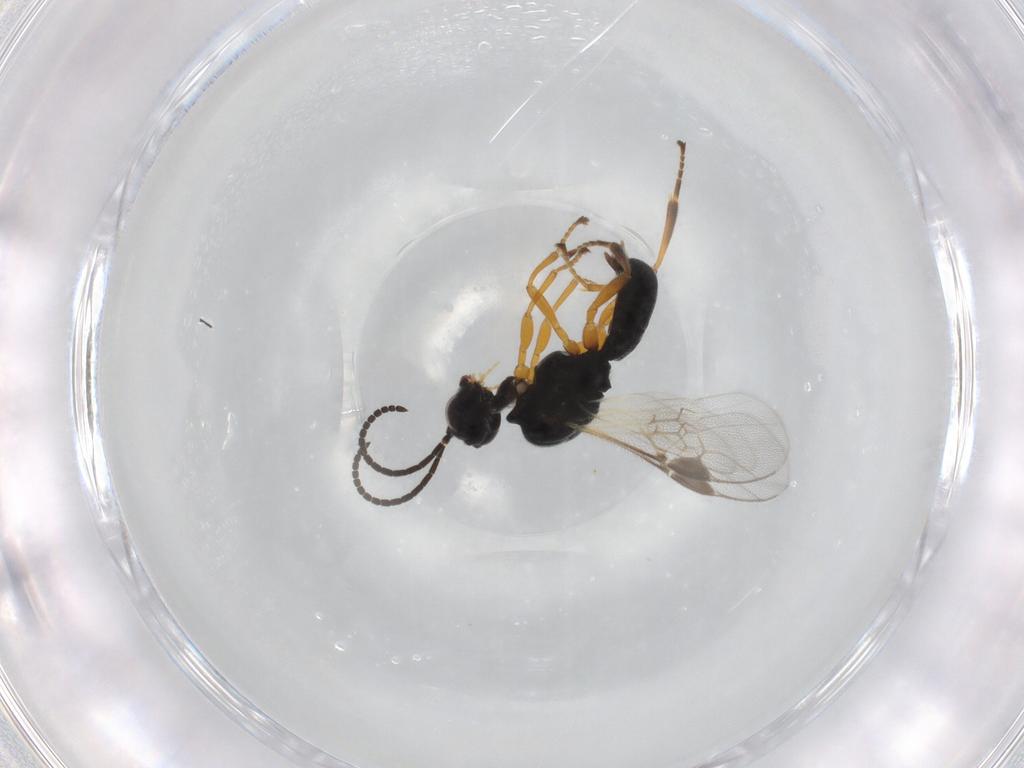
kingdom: Animalia
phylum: Arthropoda
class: Insecta
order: Hymenoptera
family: Braconidae
